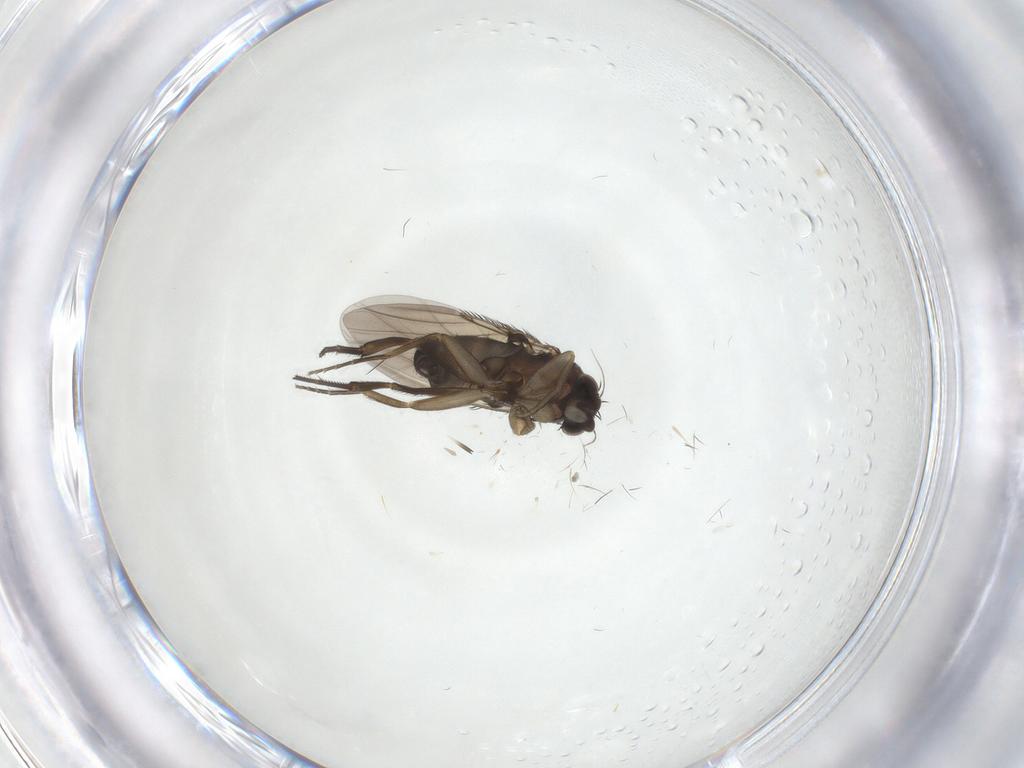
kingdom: Animalia
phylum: Arthropoda
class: Insecta
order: Diptera
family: Phoridae
